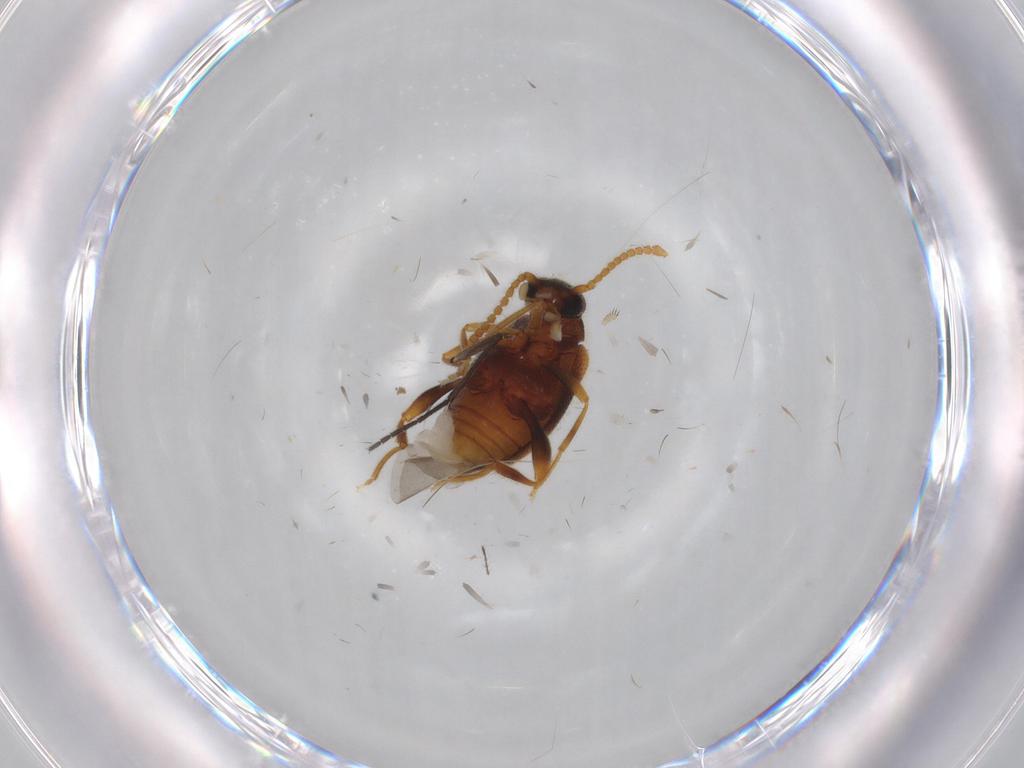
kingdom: Animalia
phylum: Arthropoda
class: Insecta
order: Coleoptera
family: Aderidae
